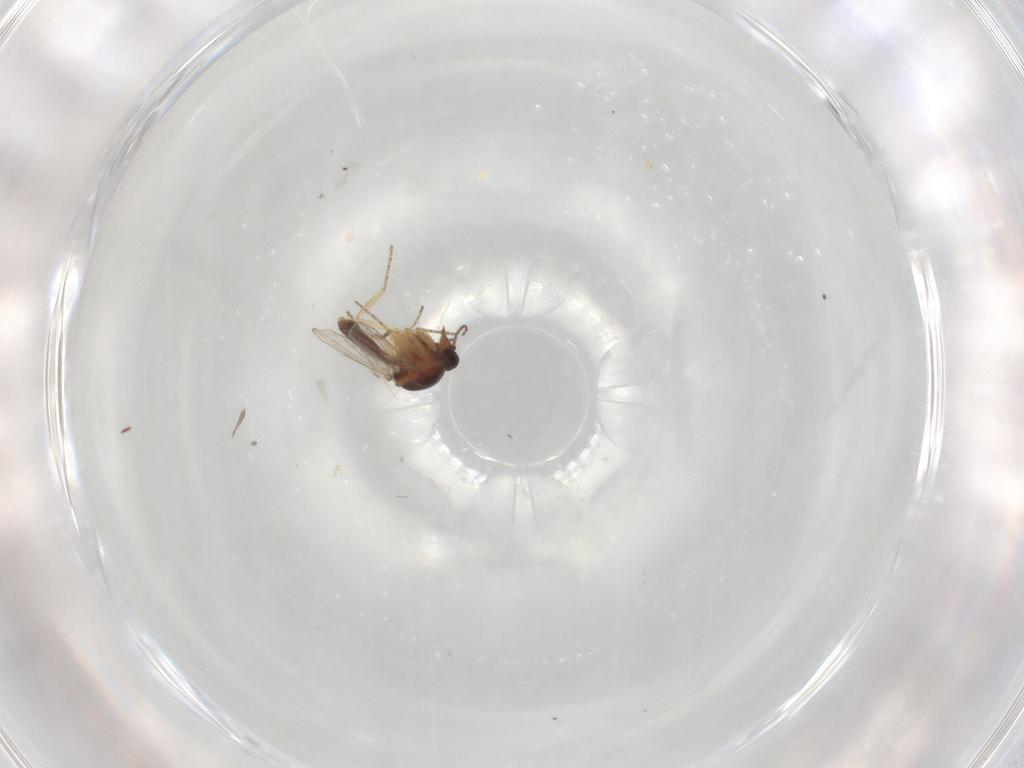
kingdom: Animalia
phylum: Arthropoda
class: Insecta
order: Diptera
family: Ceratopogonidae
